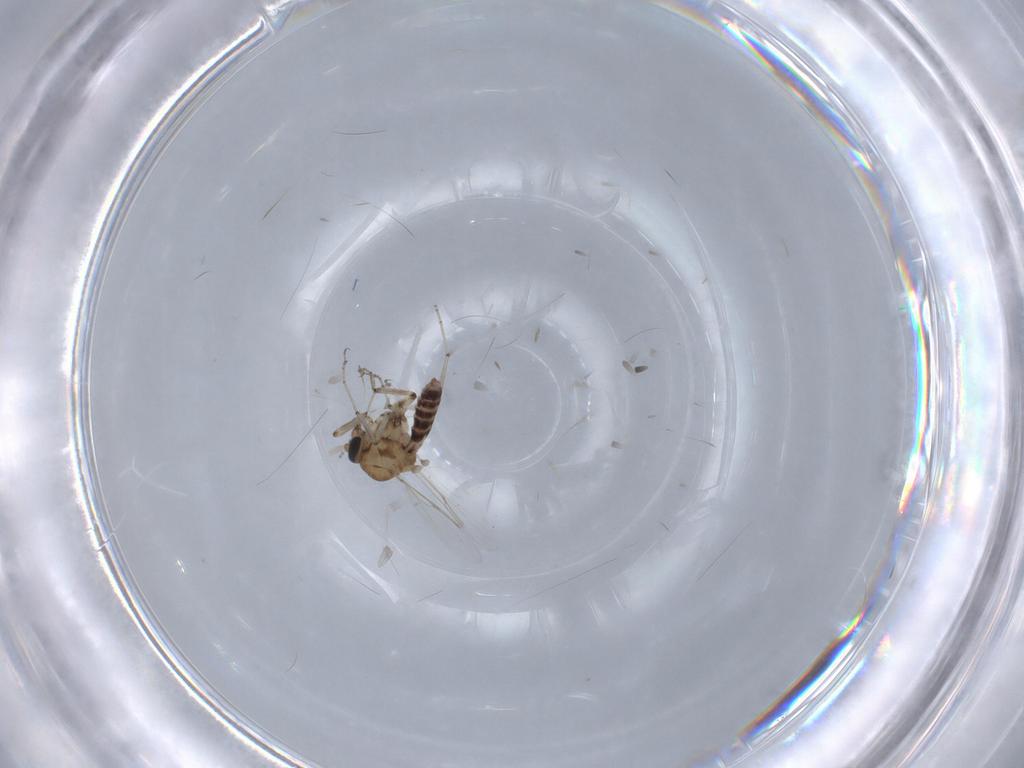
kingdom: Animalia
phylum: Arthropoda
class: Insecta
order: Diptera
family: Ceratopogonidae
